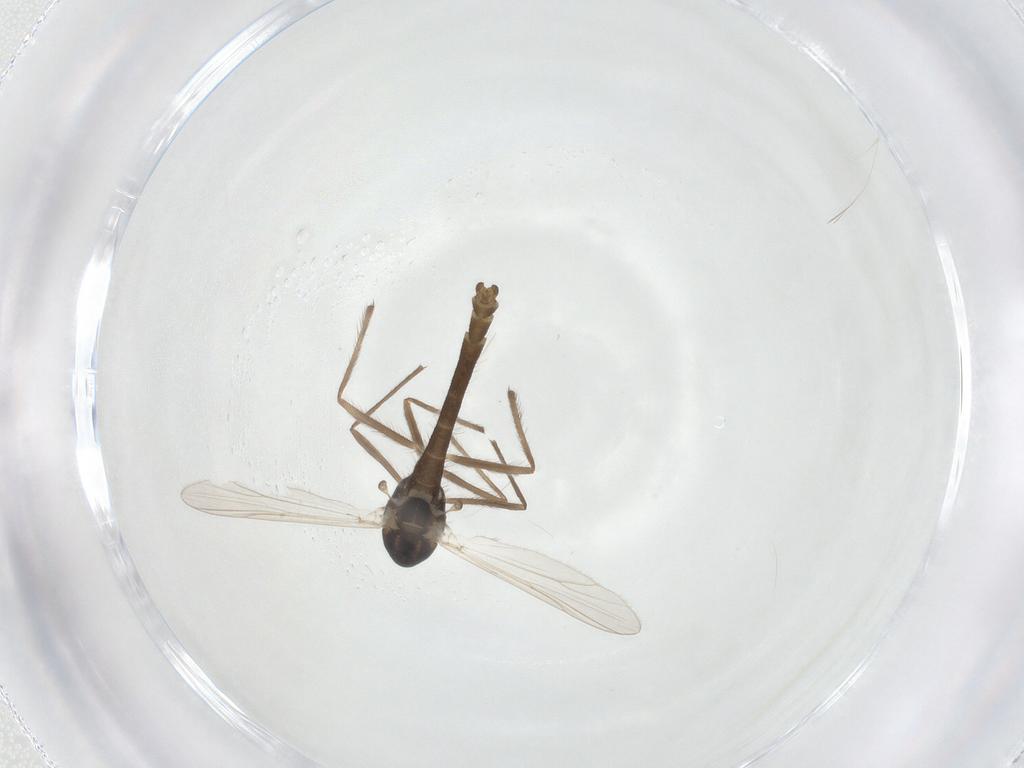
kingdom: Animalia
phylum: Arthropoda
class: Insecta
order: Diptera
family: Chironomidae
